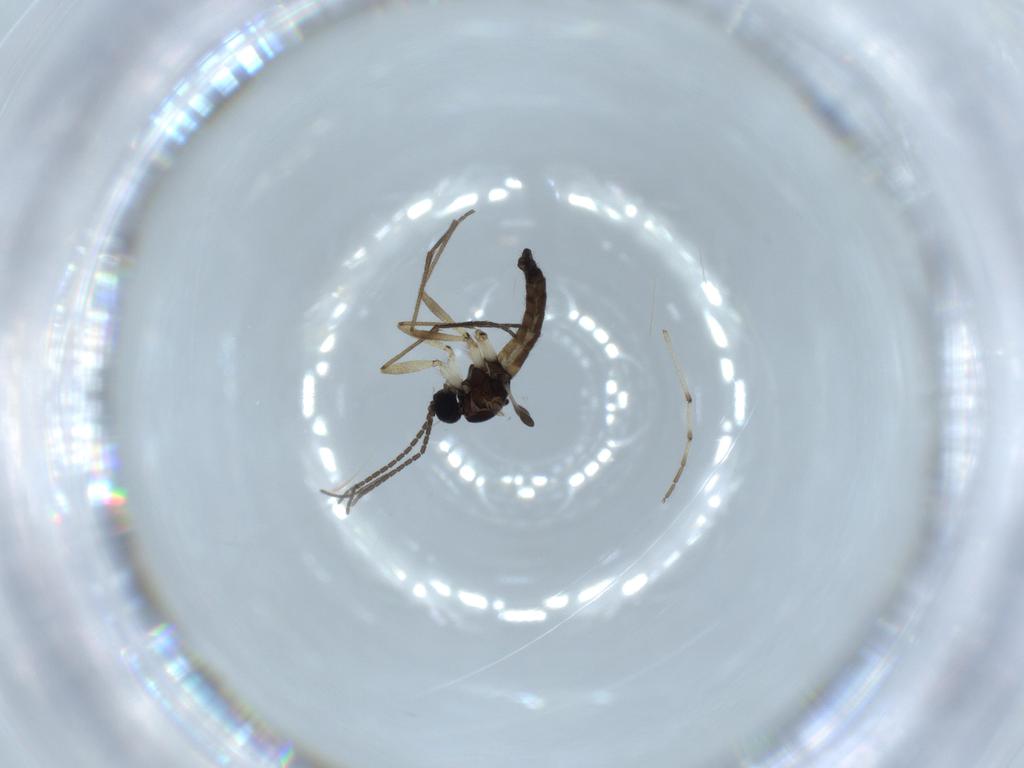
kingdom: Animalia
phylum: Arthropoda
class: Insecta
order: Diptera
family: Sciaridae
